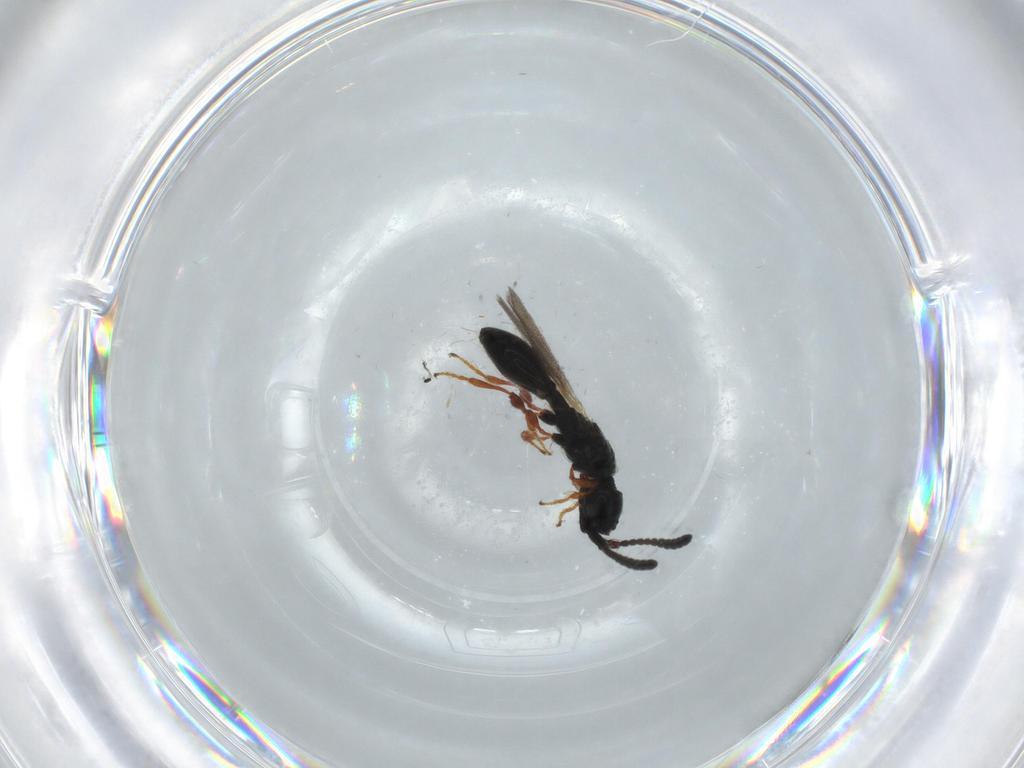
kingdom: Animalia
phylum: Arthropoda
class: Insecta
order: Hymenoptera
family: Diapriidae
